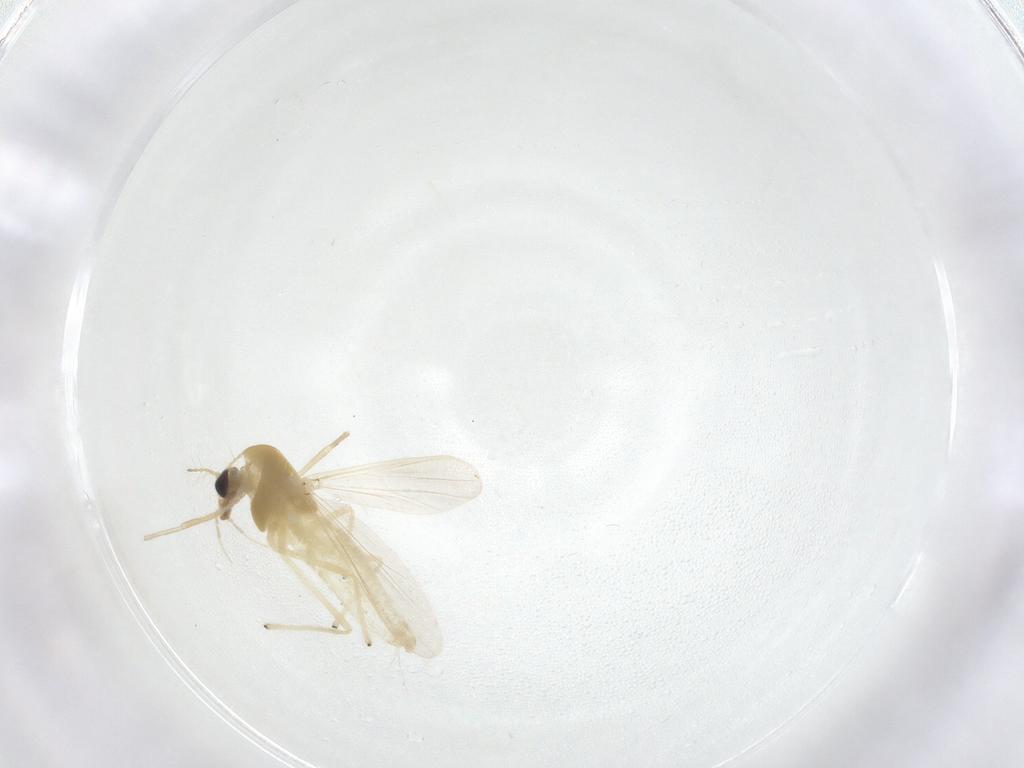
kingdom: Animalia
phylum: Arthropoda
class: Insecta
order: Diptera
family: Chironomidae
